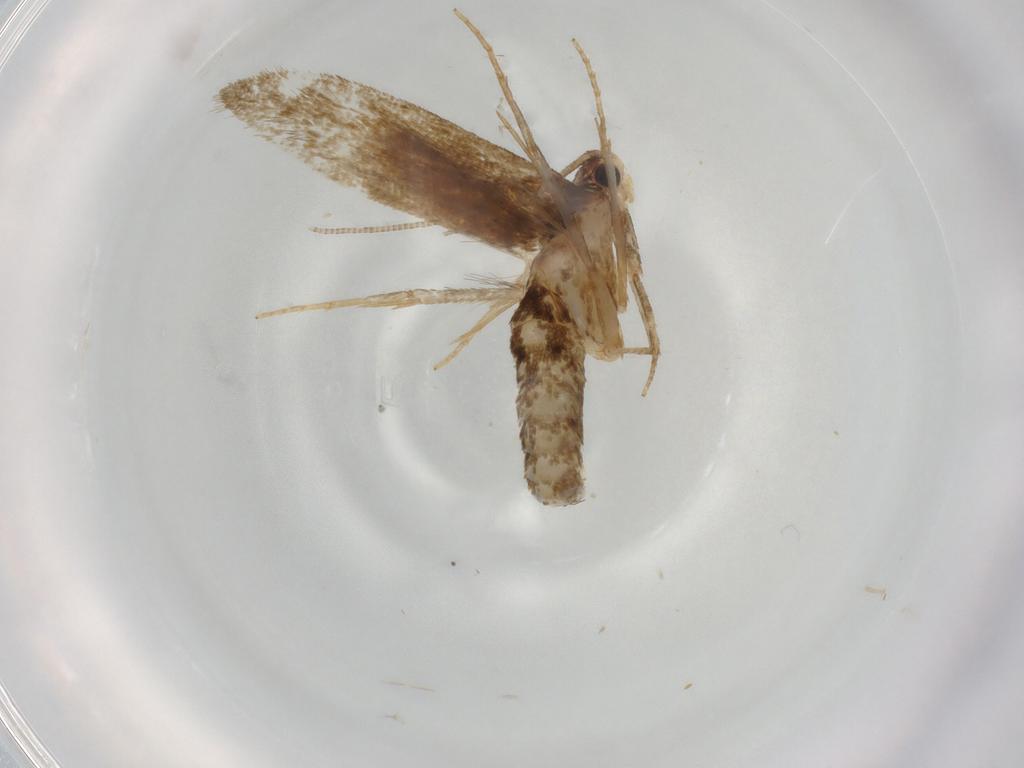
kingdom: Animalia
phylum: Arthropoda
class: Insecta
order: Lepidoptera
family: Tineidae
